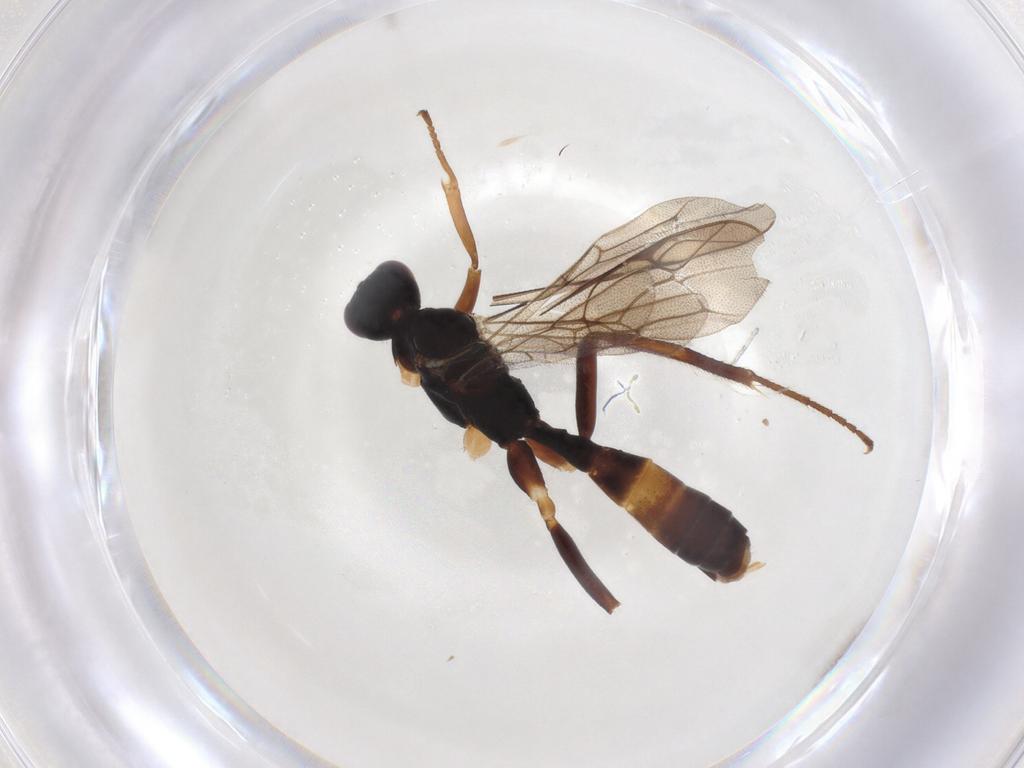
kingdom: Animalia
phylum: Arthropoda
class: Insecta
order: Hymenoptera
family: Ichneumonidae
